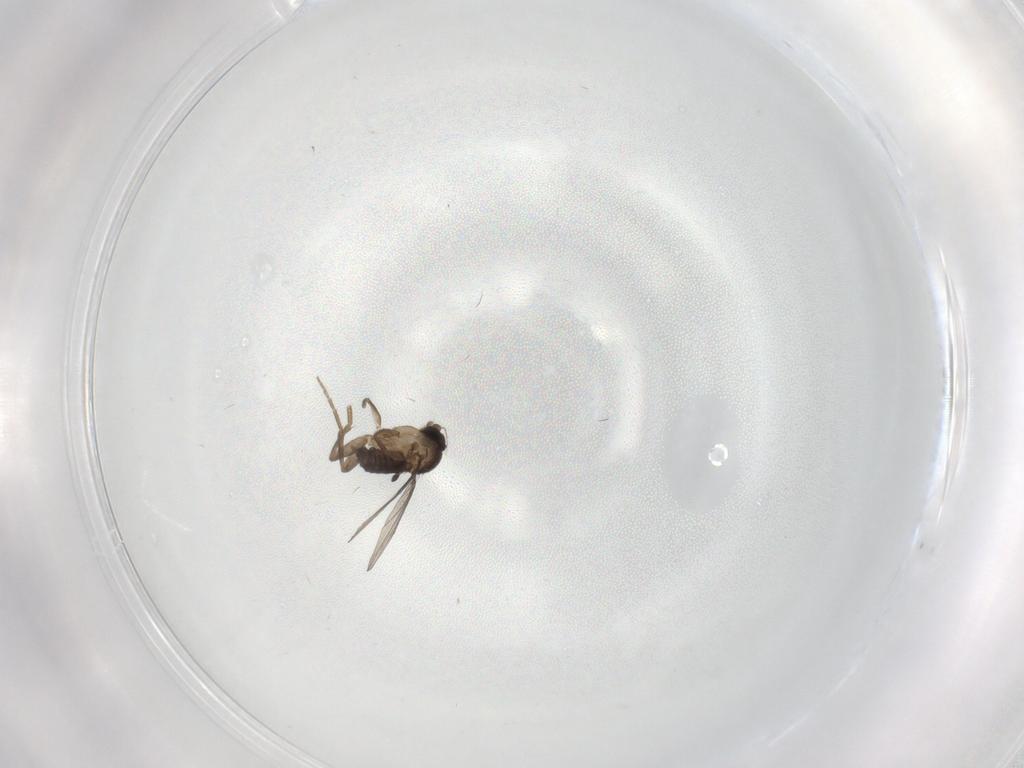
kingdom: Animalia
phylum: Arthropoda
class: Insecta
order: Diptera
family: Phoridae
